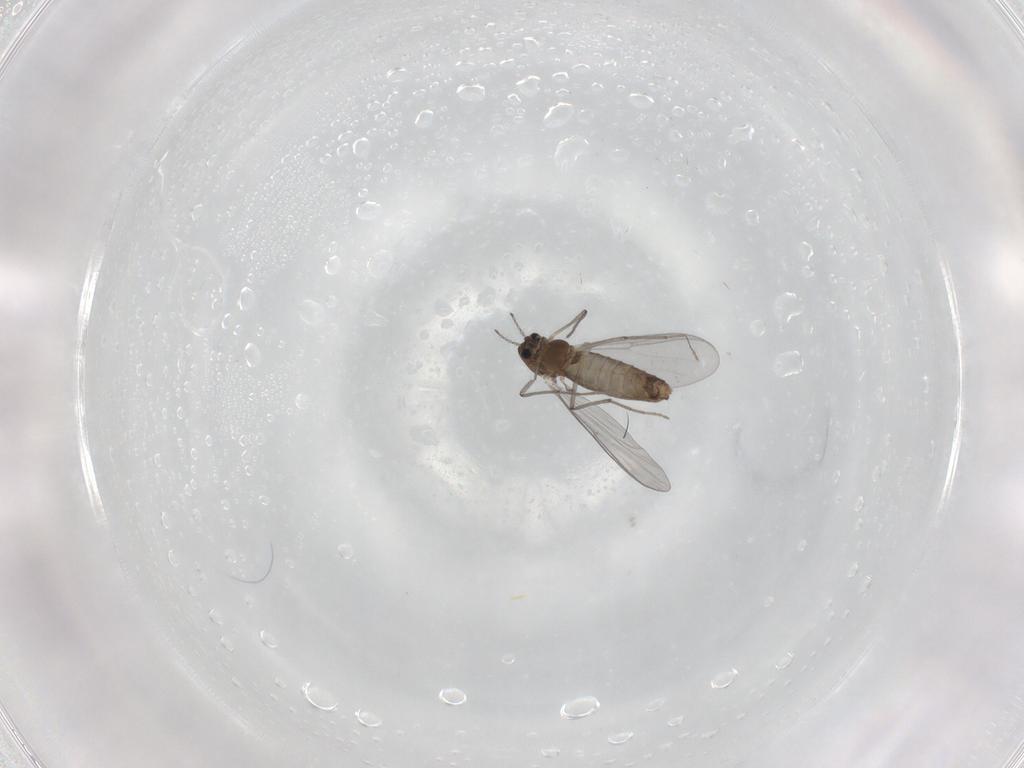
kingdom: Animalia
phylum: Arthropoda
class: Insecta
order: Diptera
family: Chironomidae
